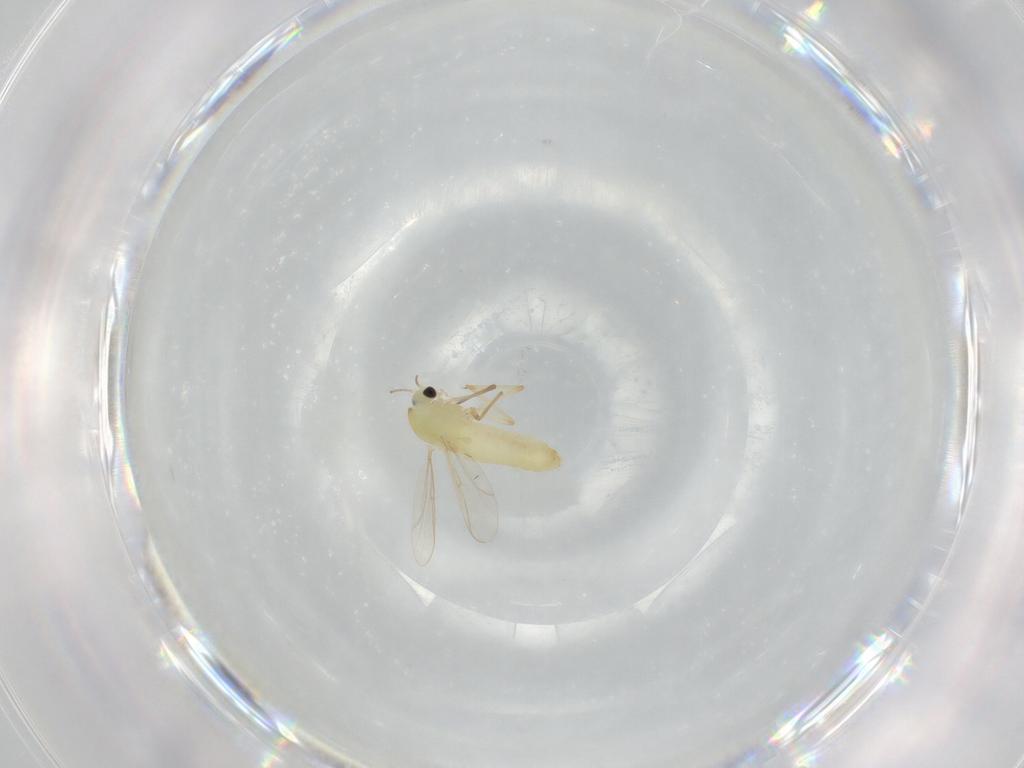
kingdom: Animalia
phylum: Arthropoda
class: Insecta
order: Diptera
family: Chironomidae
